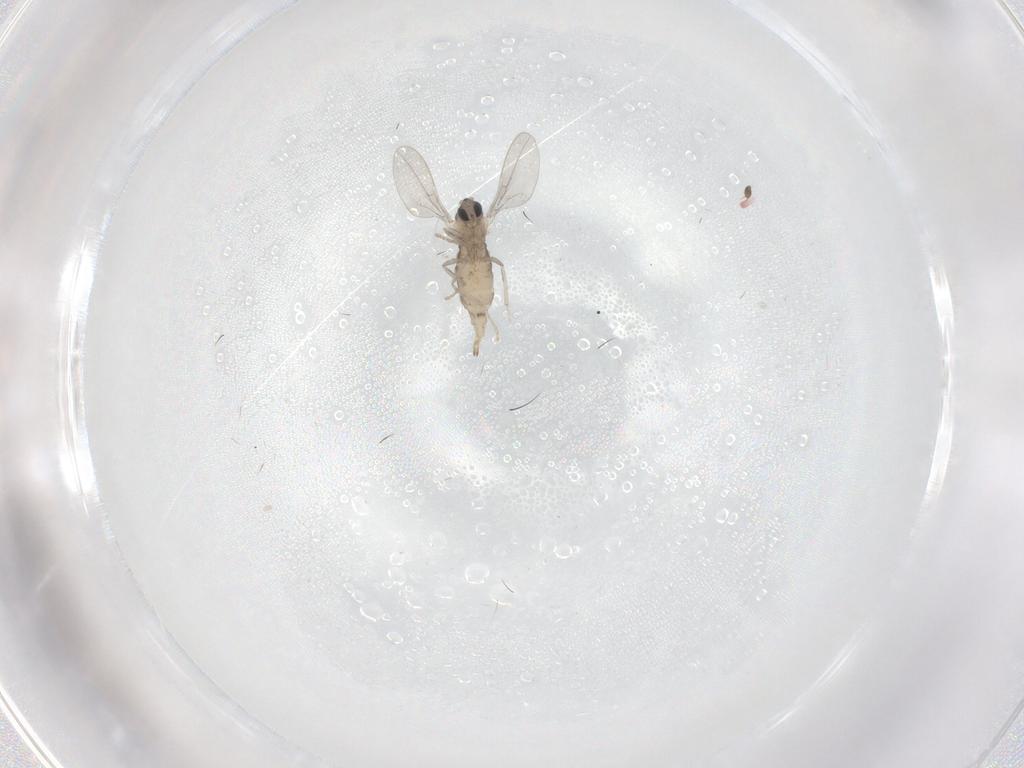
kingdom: Animalia
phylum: Arthropoda
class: Insecta
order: Diptera
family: Cecidomyiidae
